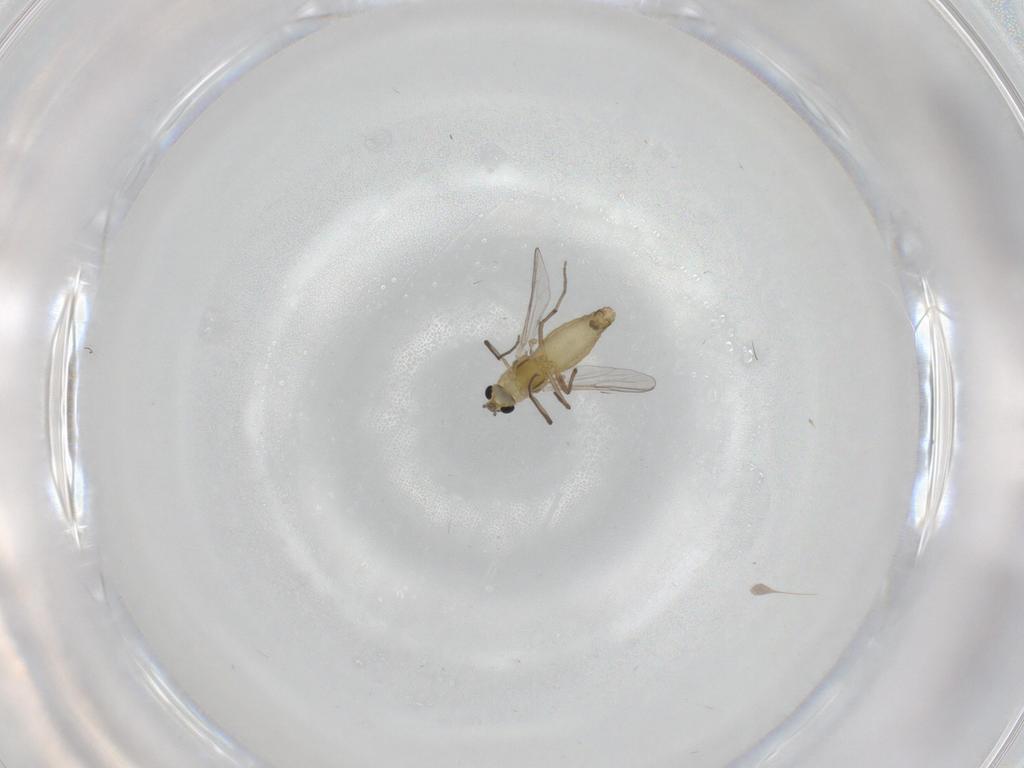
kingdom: Animalia
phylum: Arthropoda
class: Insecta
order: Diptera
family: Chironomidae
